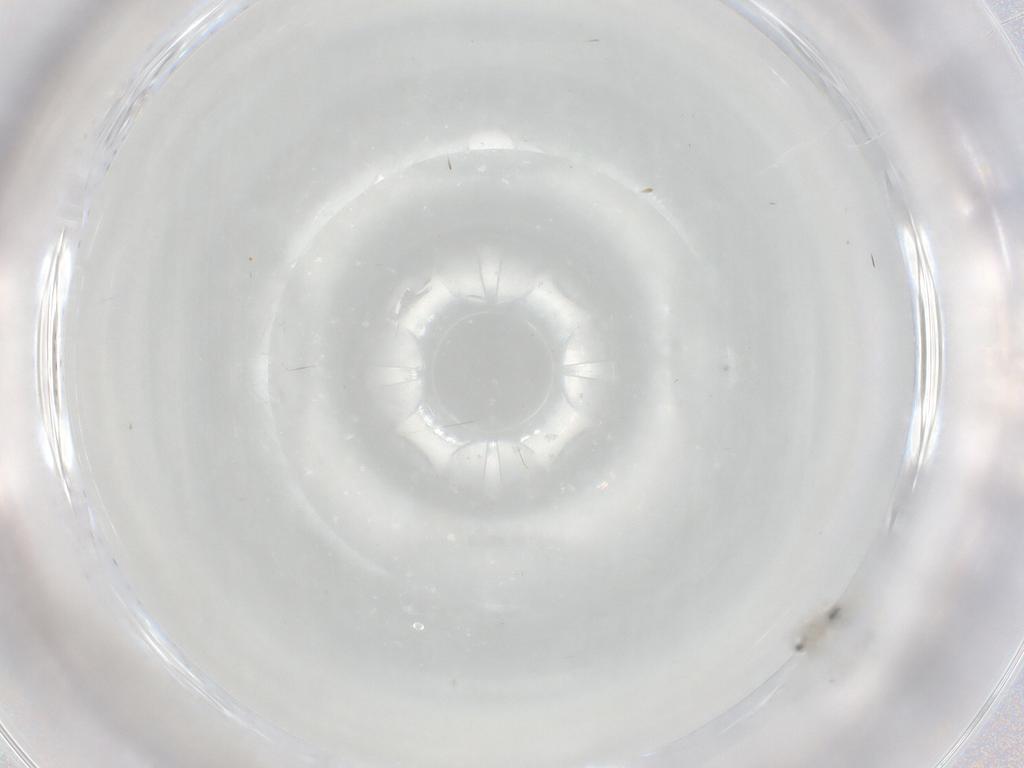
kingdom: Animalia
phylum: Arthropoda
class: Insecta
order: Diptera
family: Cecidomyiidae
